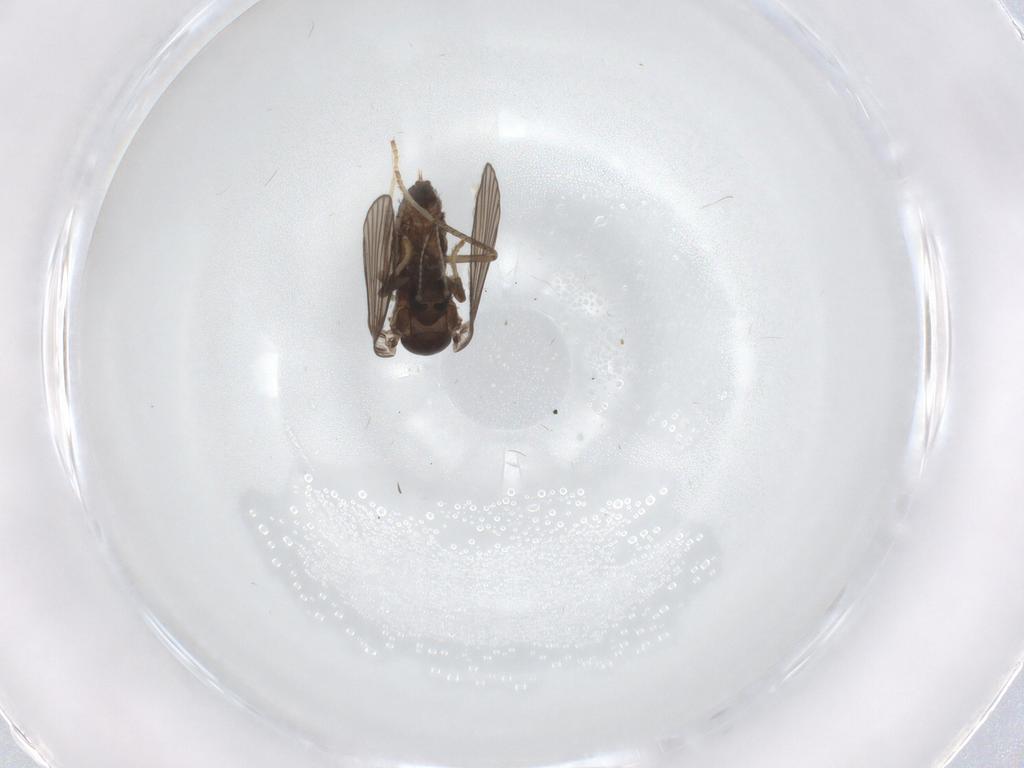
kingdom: Animalia
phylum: Arthropoda
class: Insecta
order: Diptera
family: Psychodidae
